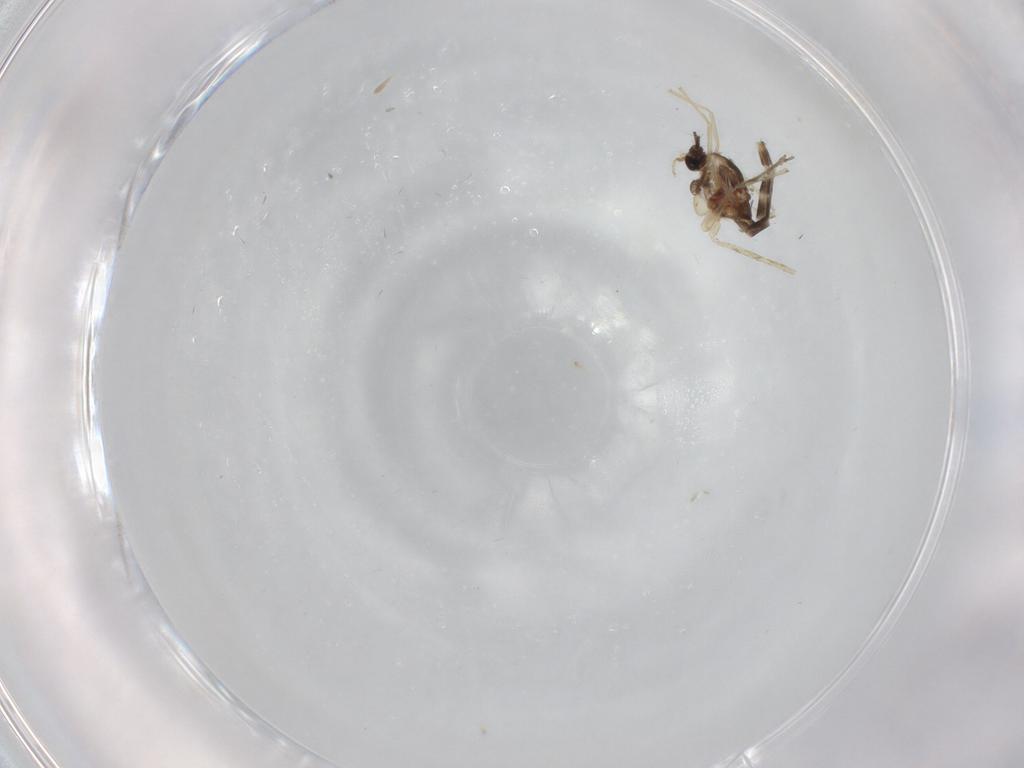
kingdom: Animalia
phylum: Arthropoda
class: Insecta
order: Diptera
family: Chironomidae
